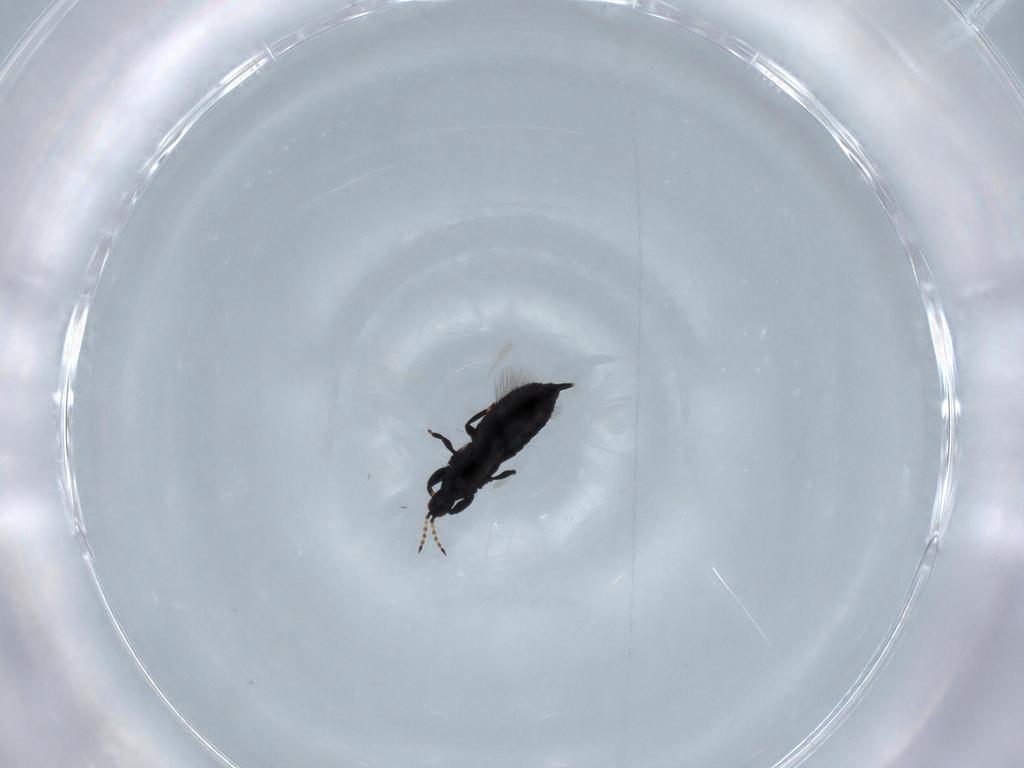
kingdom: Animalia
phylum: Arthropoda
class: Insecta
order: Thysanoptera
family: Phlaeothripidae
